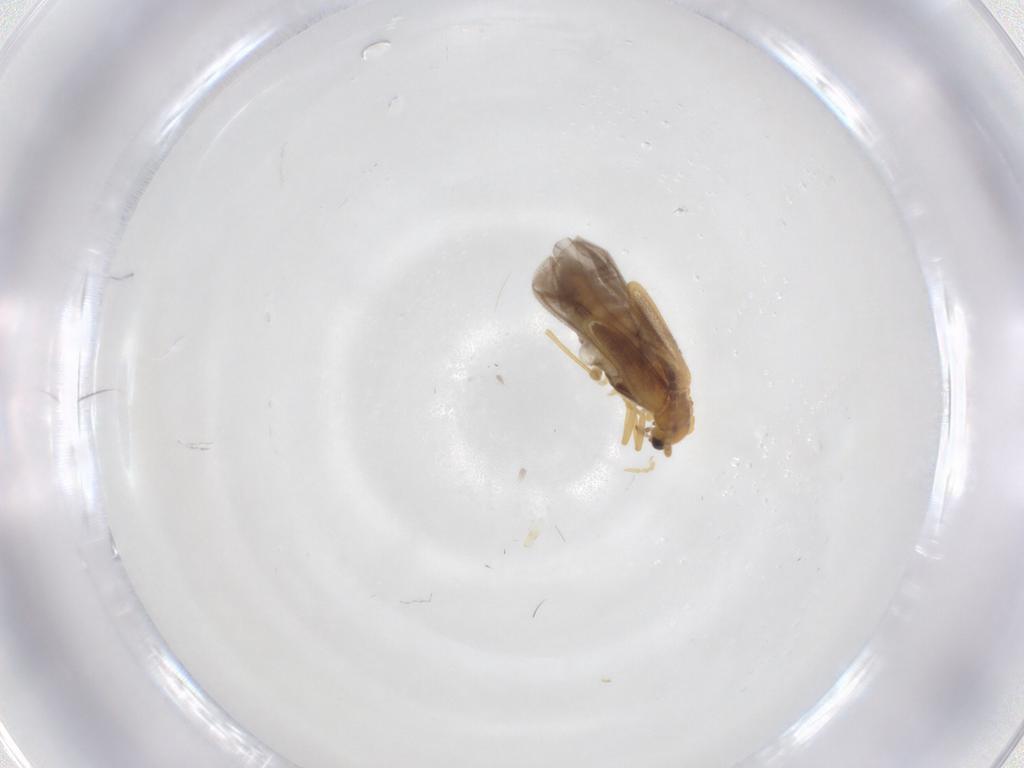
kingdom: Animalia
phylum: Arthropoda
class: Insecta
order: Coleoptera
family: Cantharidae
